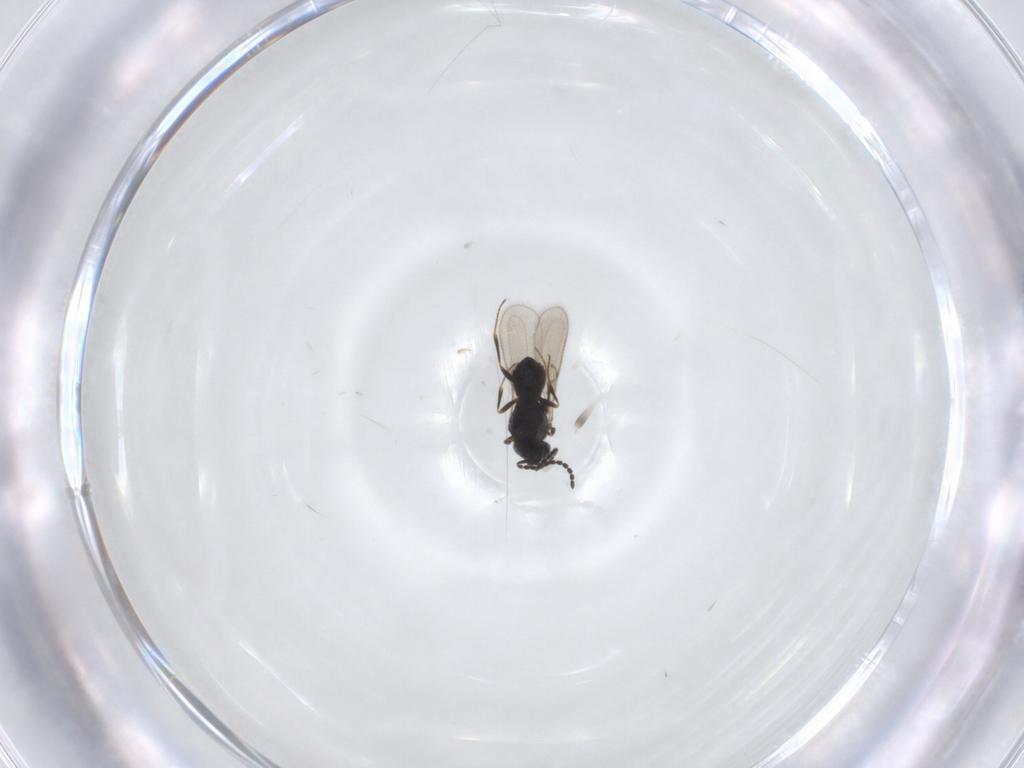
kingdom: Animalia
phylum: Arthropoda
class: Insecta
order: Hymenoptera
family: Scelionidae
